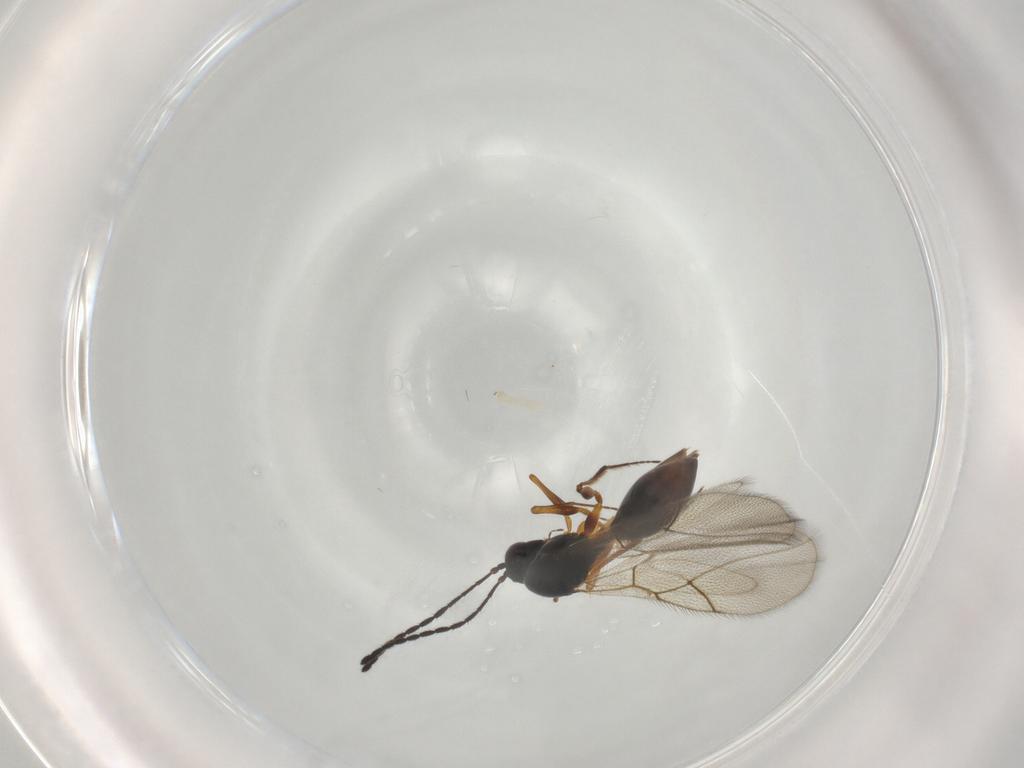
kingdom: Animalia
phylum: Arthropoda
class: Insecta
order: Hymenoptera
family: Figitidae
